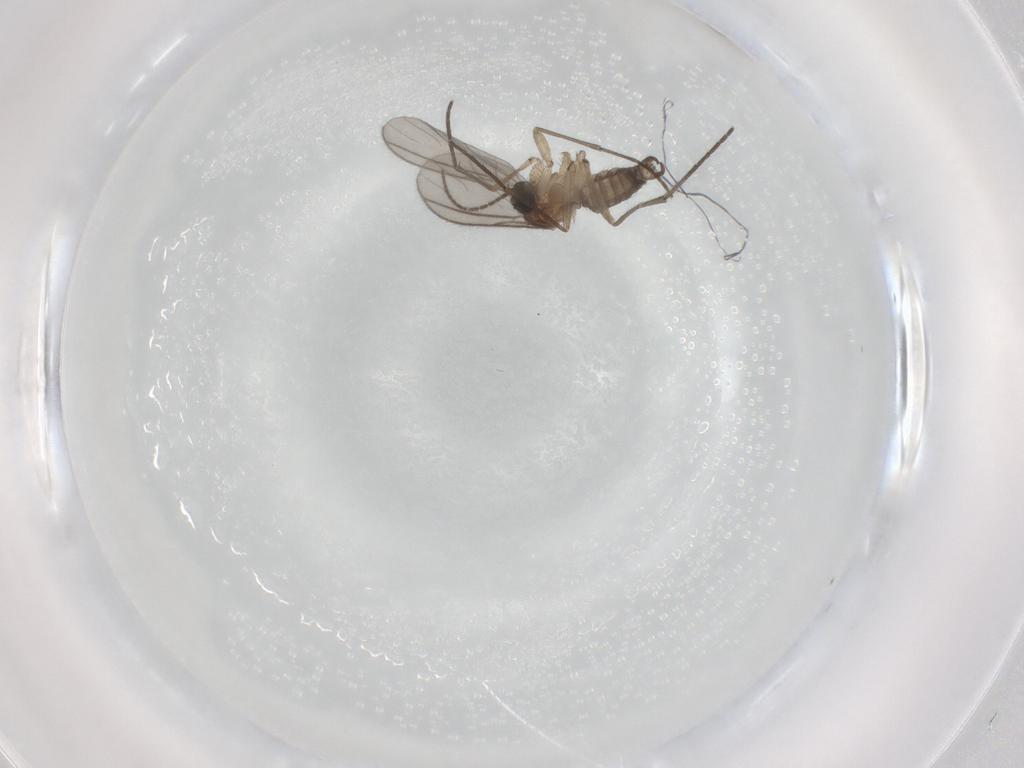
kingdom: Animalia
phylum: Arthropoda
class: Insecta
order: Diptera
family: Sciaridae
